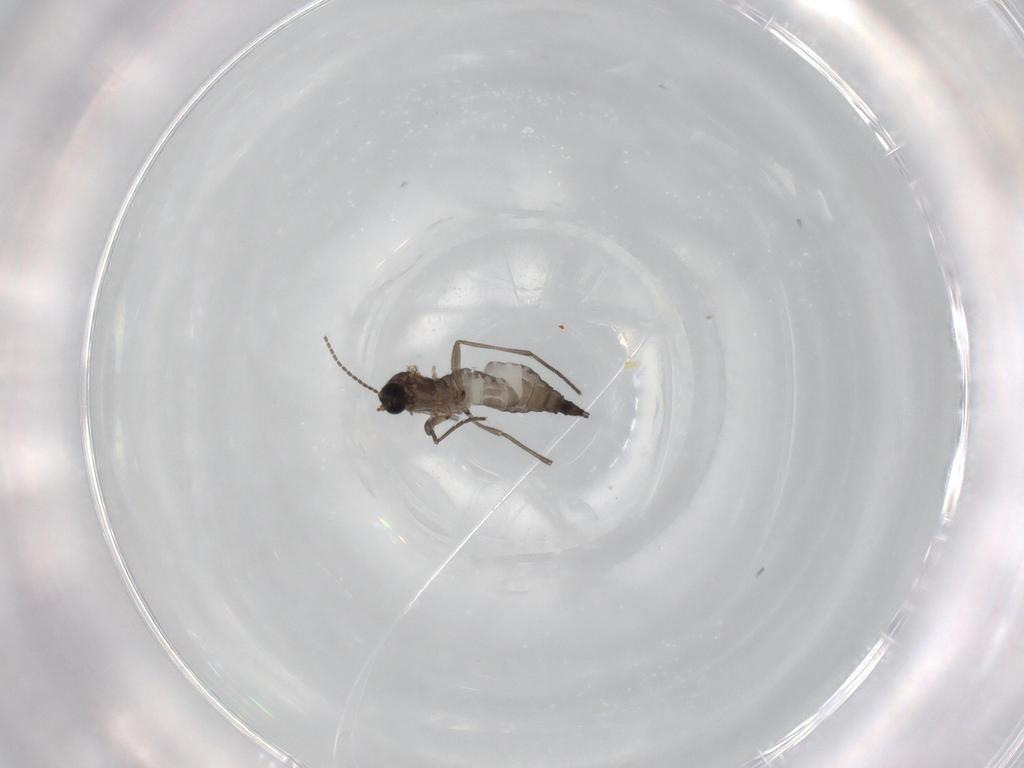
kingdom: Animalia
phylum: Arthropoda
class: Insecta
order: Diptera
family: Sciaridae
